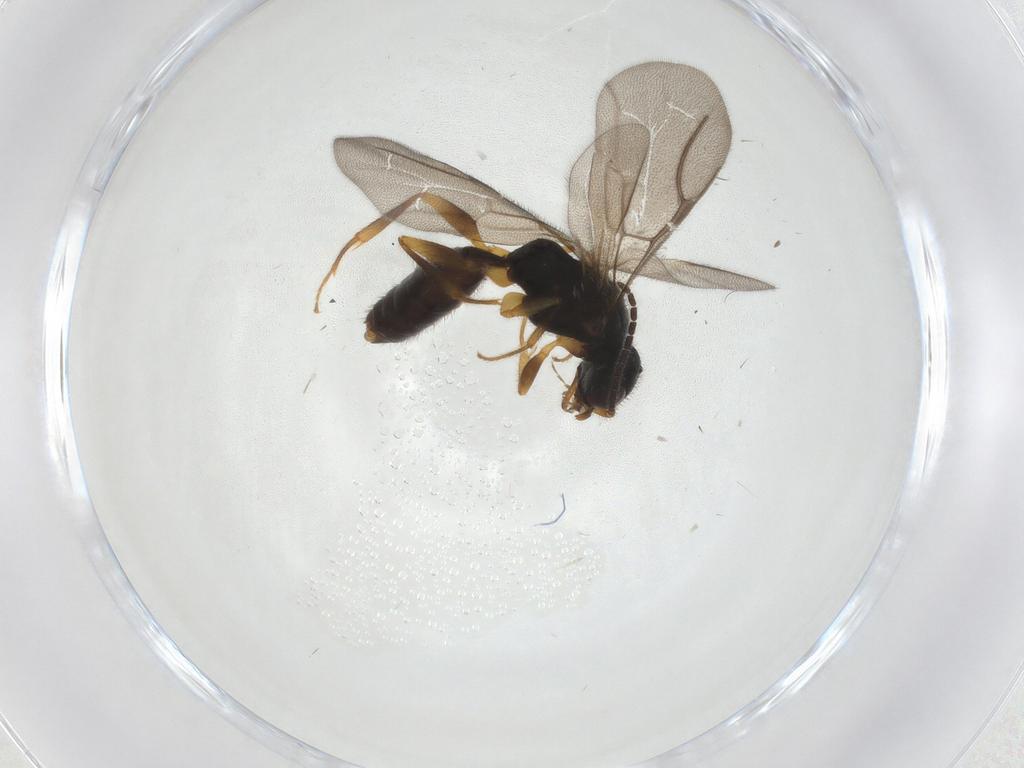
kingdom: Animalia
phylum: Arthropoda
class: Insecta
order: Hymenoptera
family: Bethylidae
